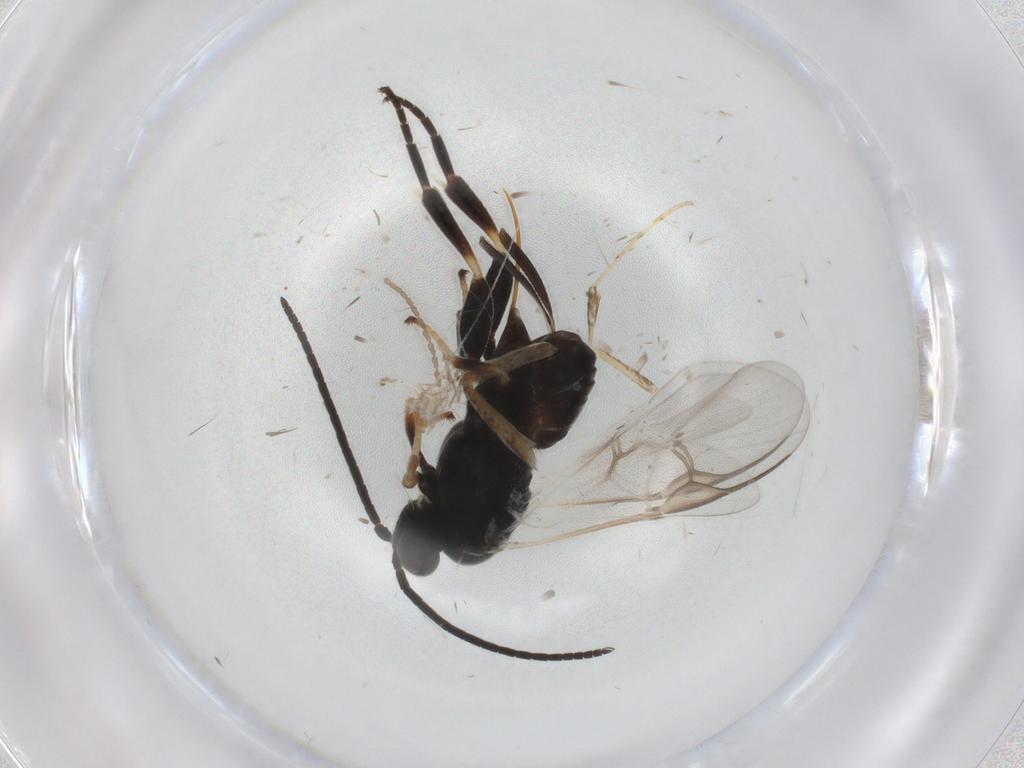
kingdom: Animalia
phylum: Arthropoda
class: Insecta
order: Hymenoptera
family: Braconidae
